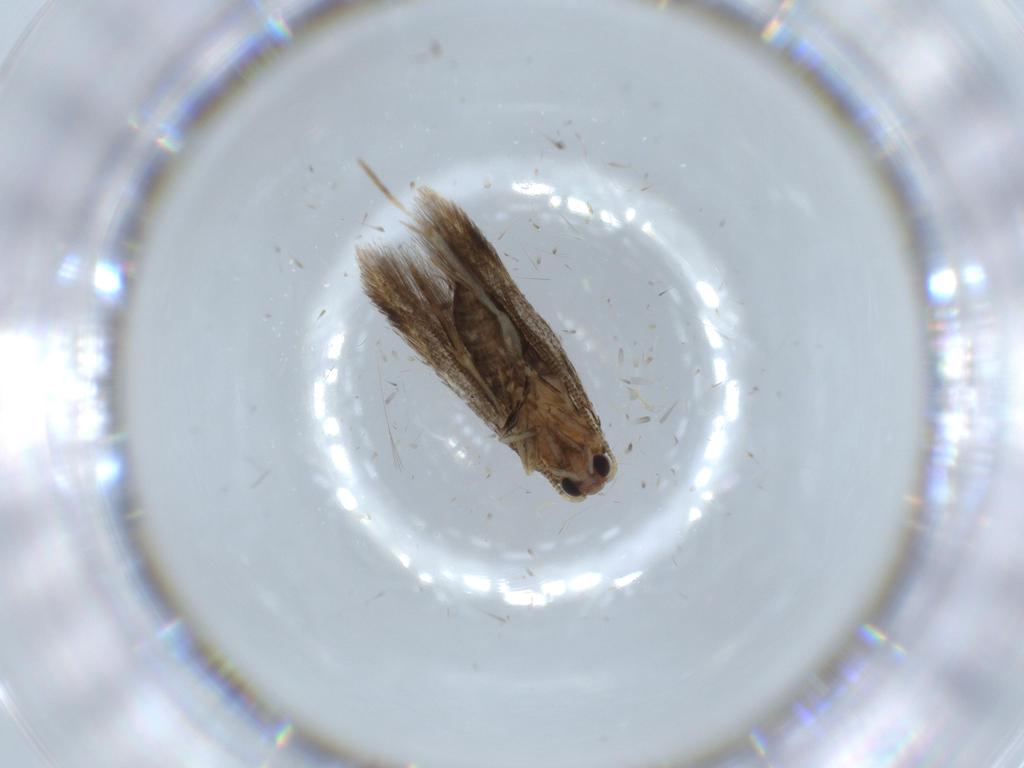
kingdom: Animalia
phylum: Arthropoda
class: Insecta
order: Lepidoptera
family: Tineidae
